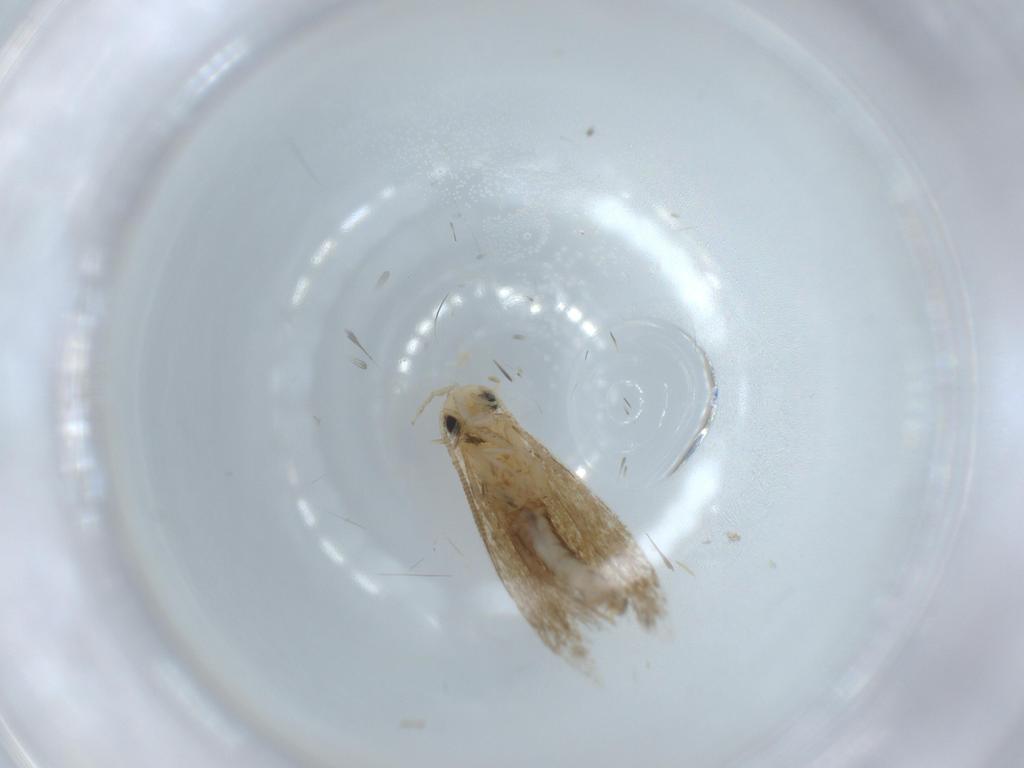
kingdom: Animalia
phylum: Arthropoda
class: Insecta
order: Lepidoptera
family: Tineidae
